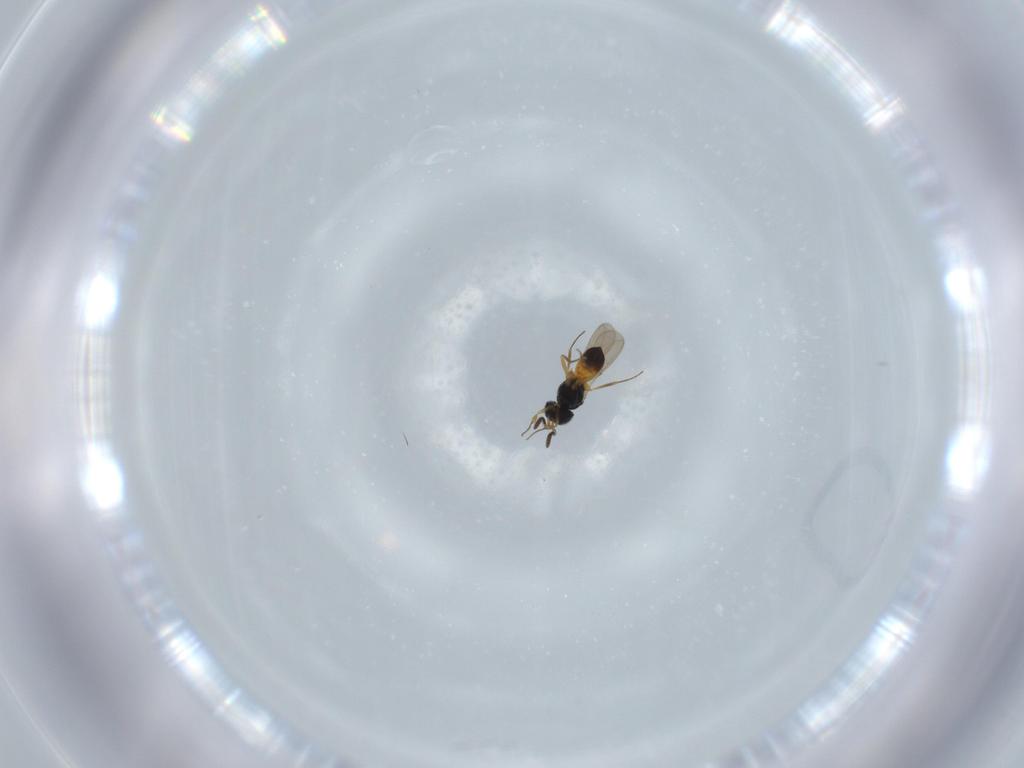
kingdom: Animalia
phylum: Arthropoda
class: Insecta
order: Hymenoptera
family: Scelionidae
